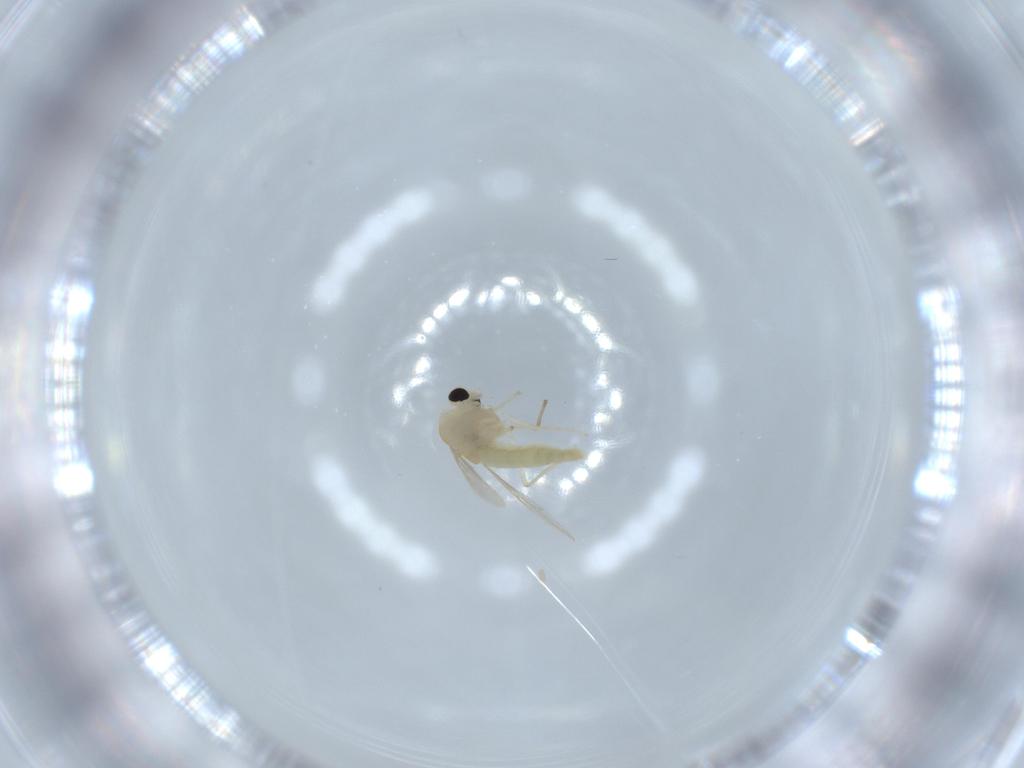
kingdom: Animalia
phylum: Arthropoda
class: Insecta
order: Diptera
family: Chironomidae
